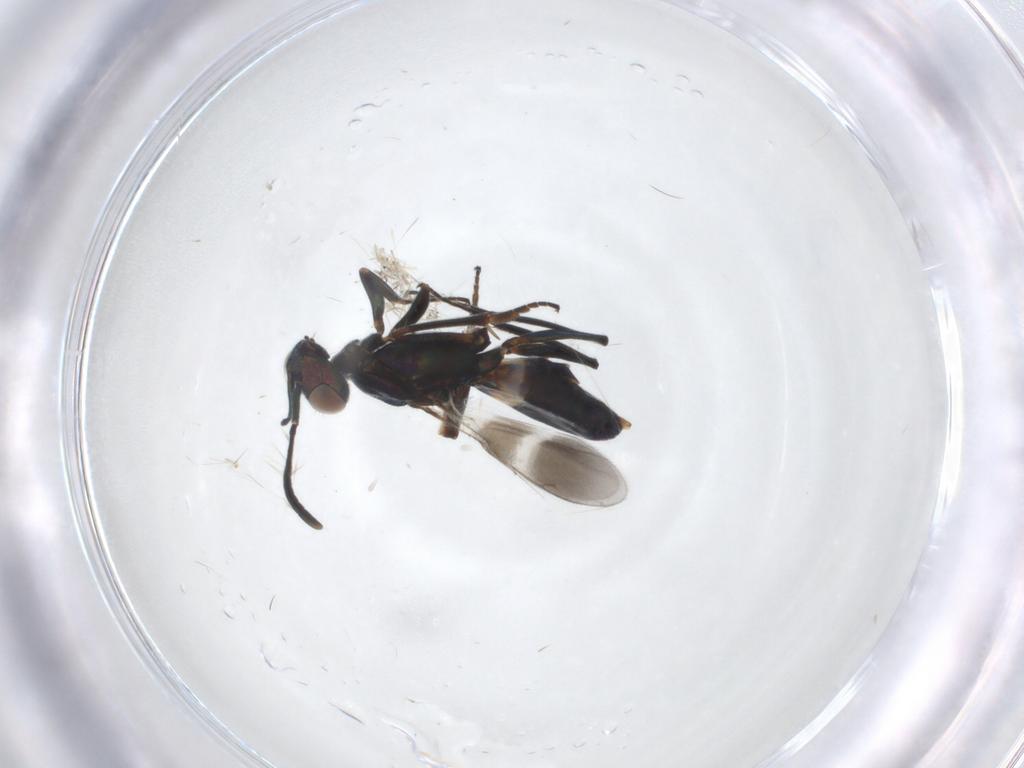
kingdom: Animalia
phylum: Arthropoda
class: Insecta
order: Hymenoptera
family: Eupelmidae
